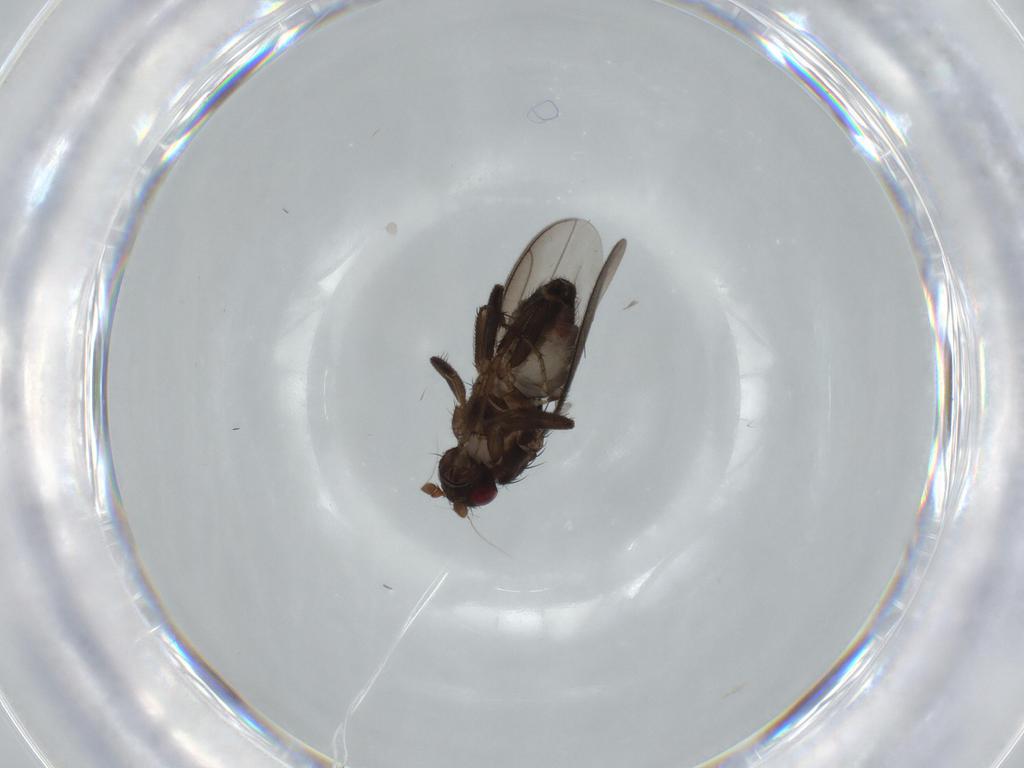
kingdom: Animalia
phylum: Arthropoda
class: Insecta
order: Diptera
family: Sphaeroceridae
